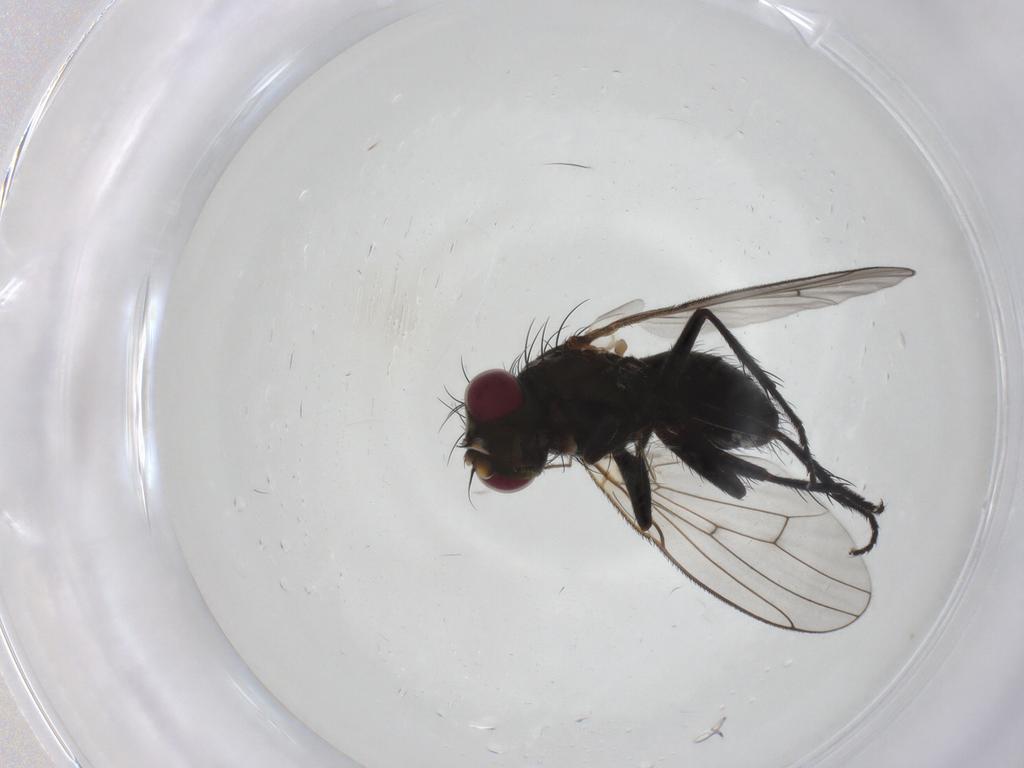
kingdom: Animalia
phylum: Arthropoda
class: Insecta
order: Diptera
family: Muscidae
